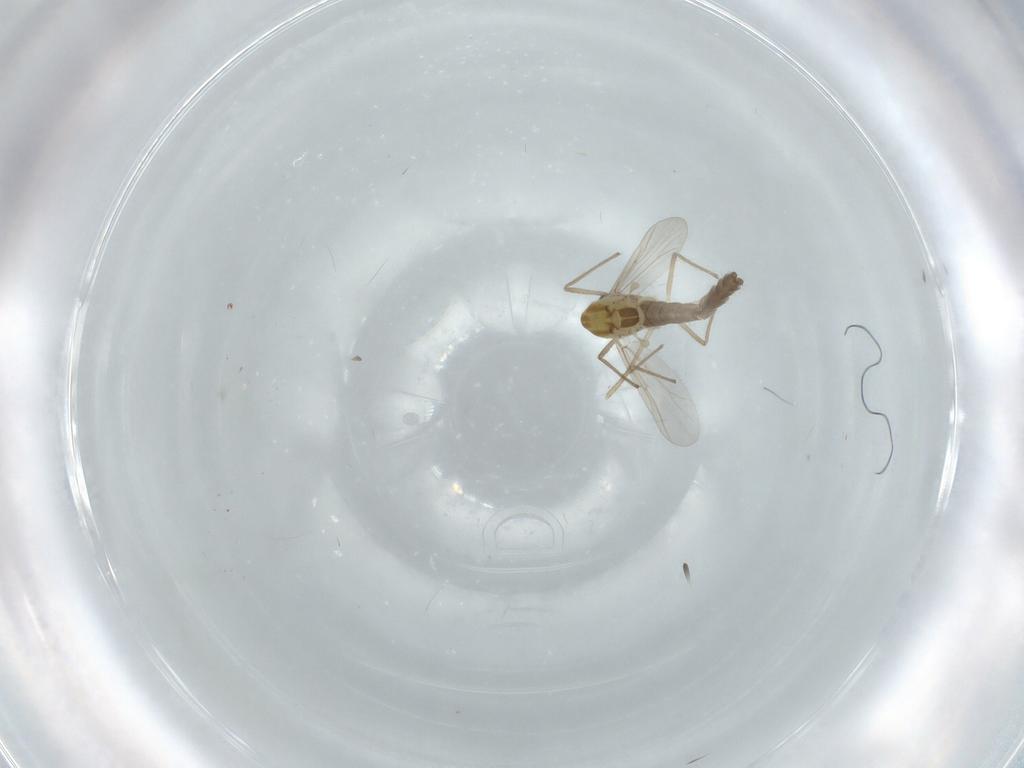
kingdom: Animalia
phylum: Arthropoda
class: Insecta
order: Diptera
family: Chironomidae
